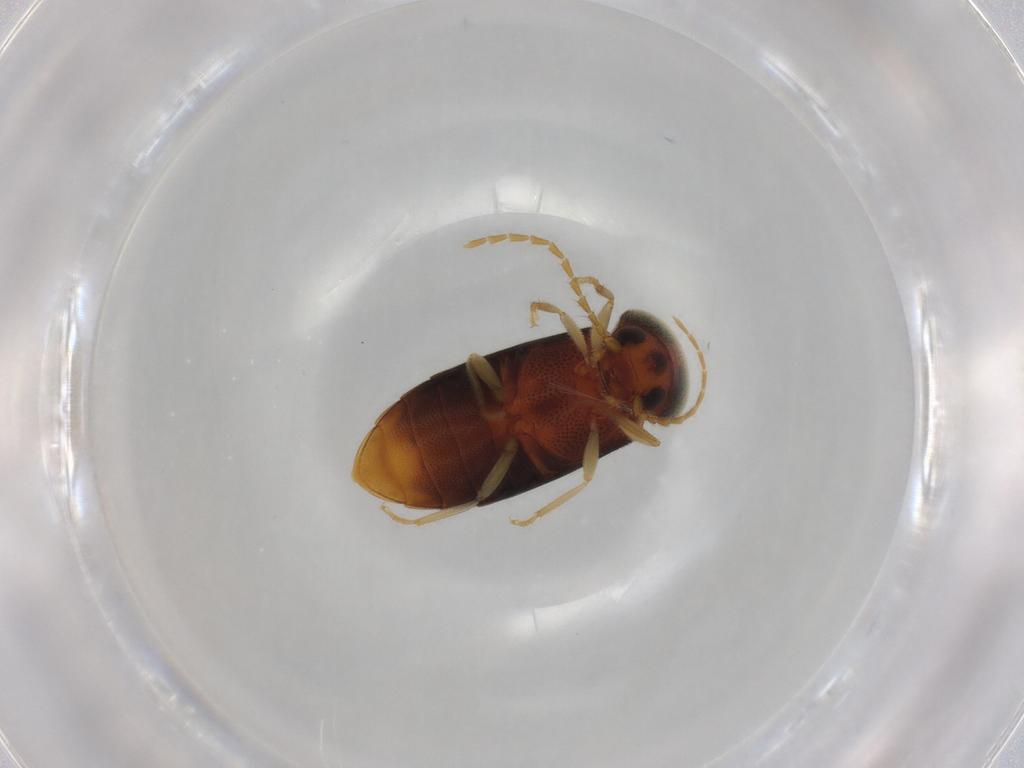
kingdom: Animalia
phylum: Arthropoda
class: Insecta
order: Coleoptera
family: Elateridae
